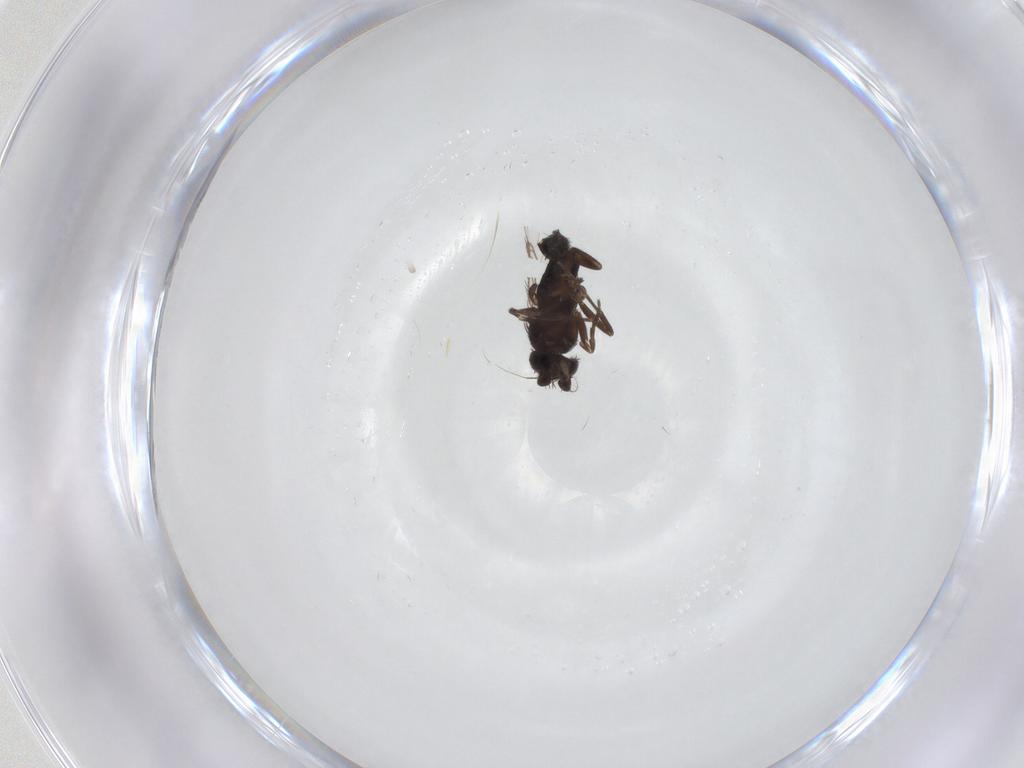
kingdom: Animalia
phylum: Arthropoda
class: Insecta
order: Diptera
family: Phoridae
